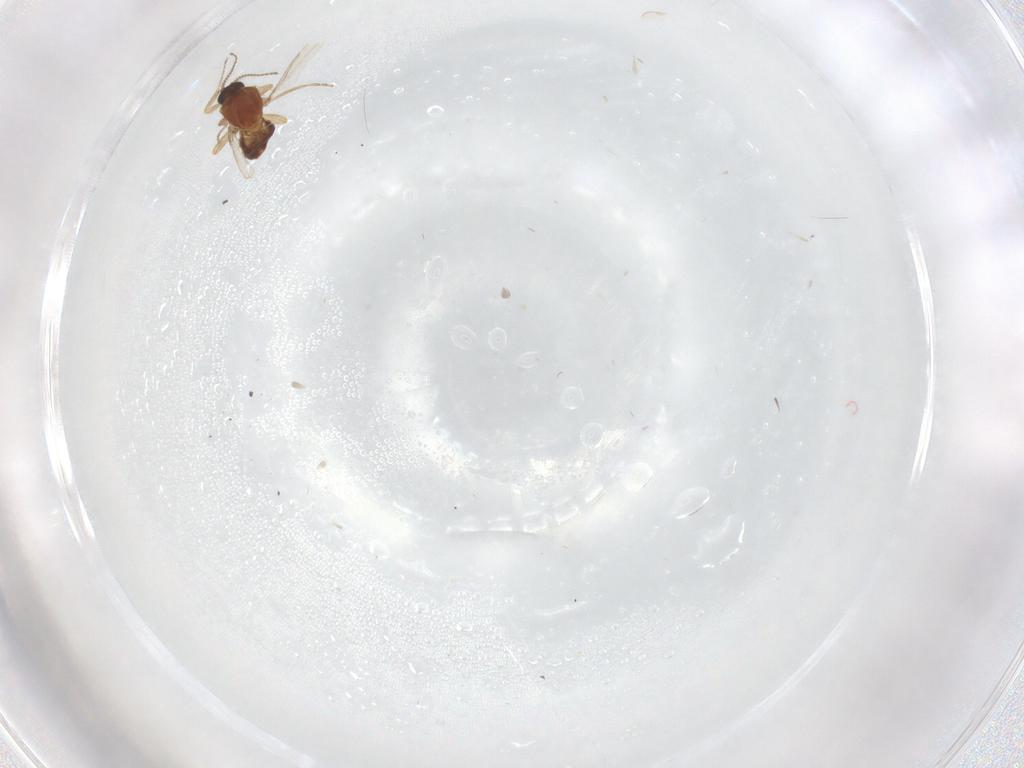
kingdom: Animalia
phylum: Arthropoda
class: Insecta
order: Diptera
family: Ceratopogonidae
